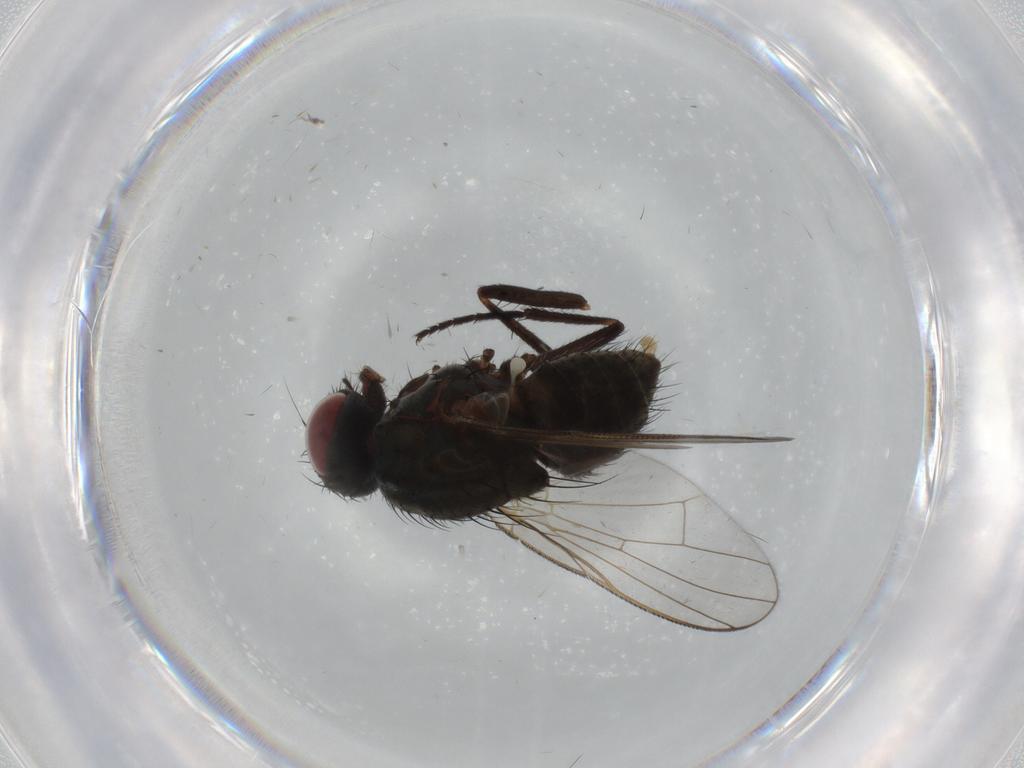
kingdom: Animalia
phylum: Arthropoda
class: Insecta
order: Diptera
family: Muscidae
